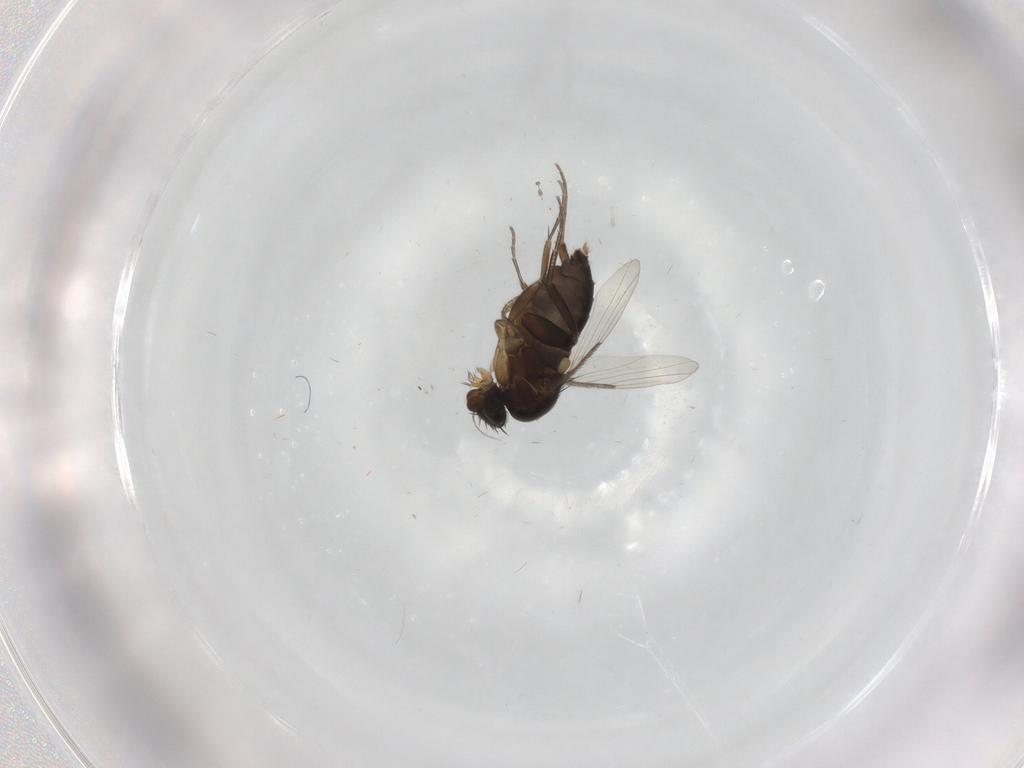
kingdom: Animalia
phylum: Arthropoda
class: Insecta
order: Diptera
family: Phoridae
